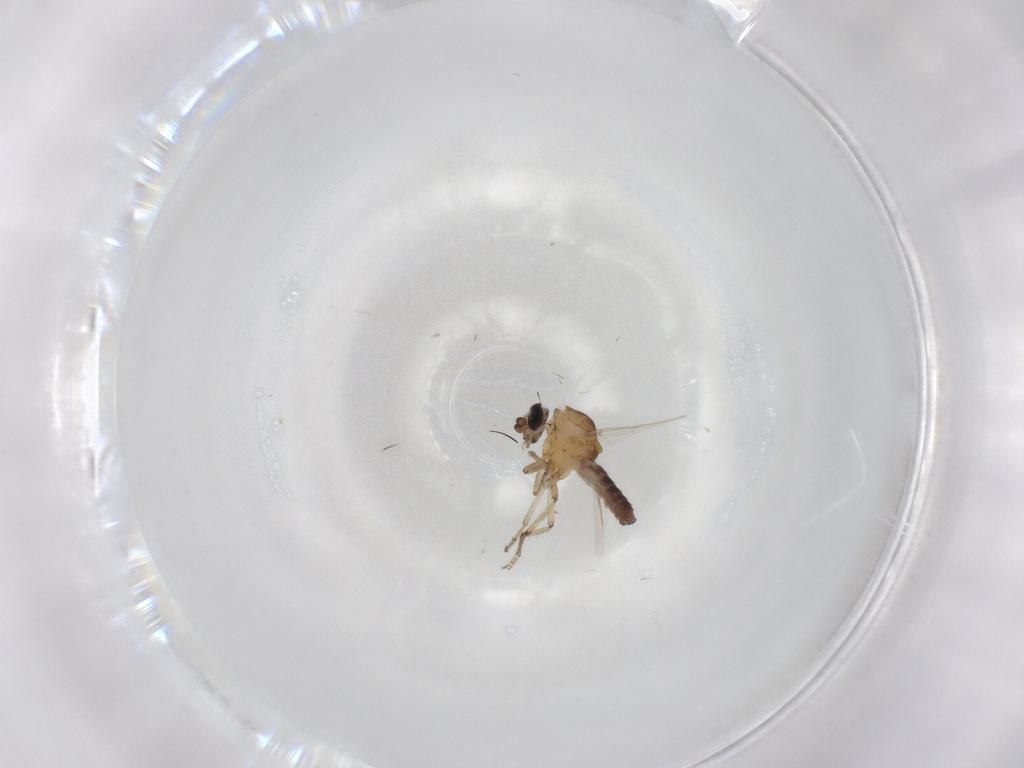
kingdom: Animalia
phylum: Arthropoda
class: Insecta
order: Diptera
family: Ceratopogonidae
